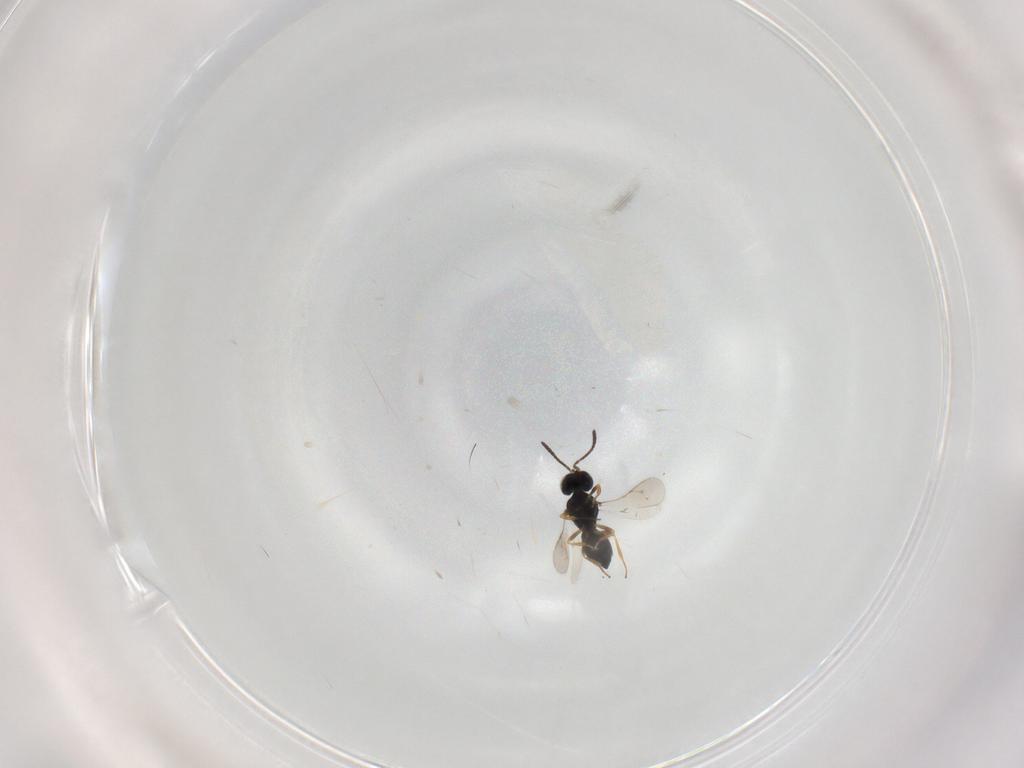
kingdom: Animalia
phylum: Arthropoda
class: Insecta
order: Hymenoptera
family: Scelionidae
